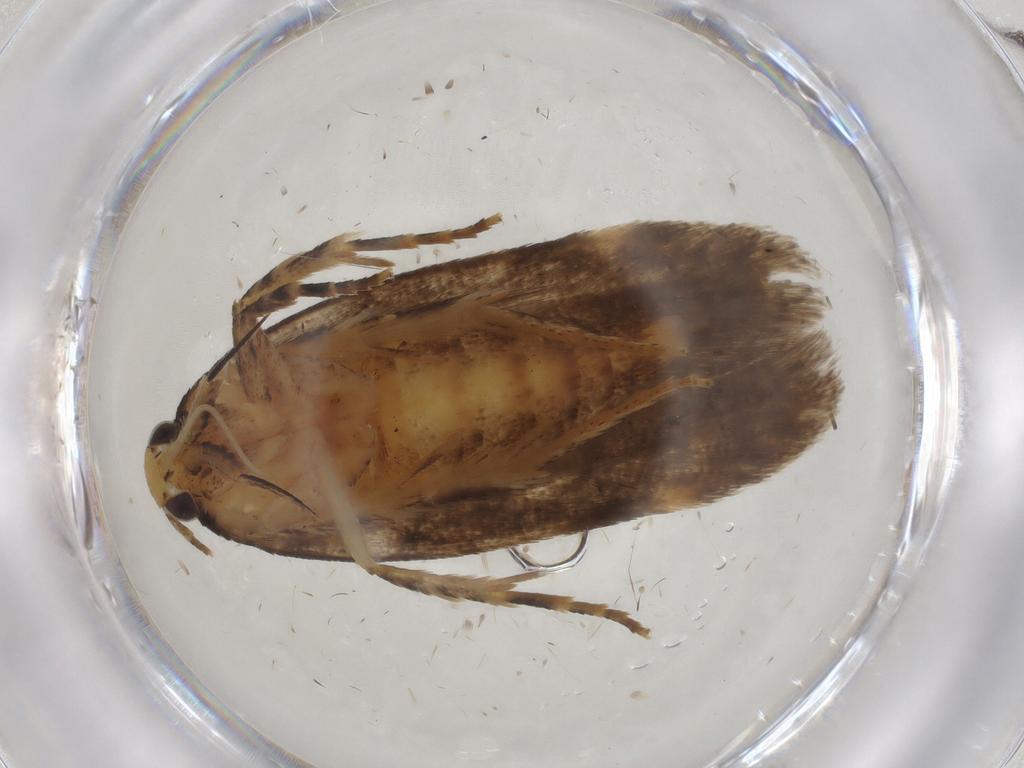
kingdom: Animalia
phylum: Arthropoda
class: Insecta
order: Lepidoptera
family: Gelechiidae
